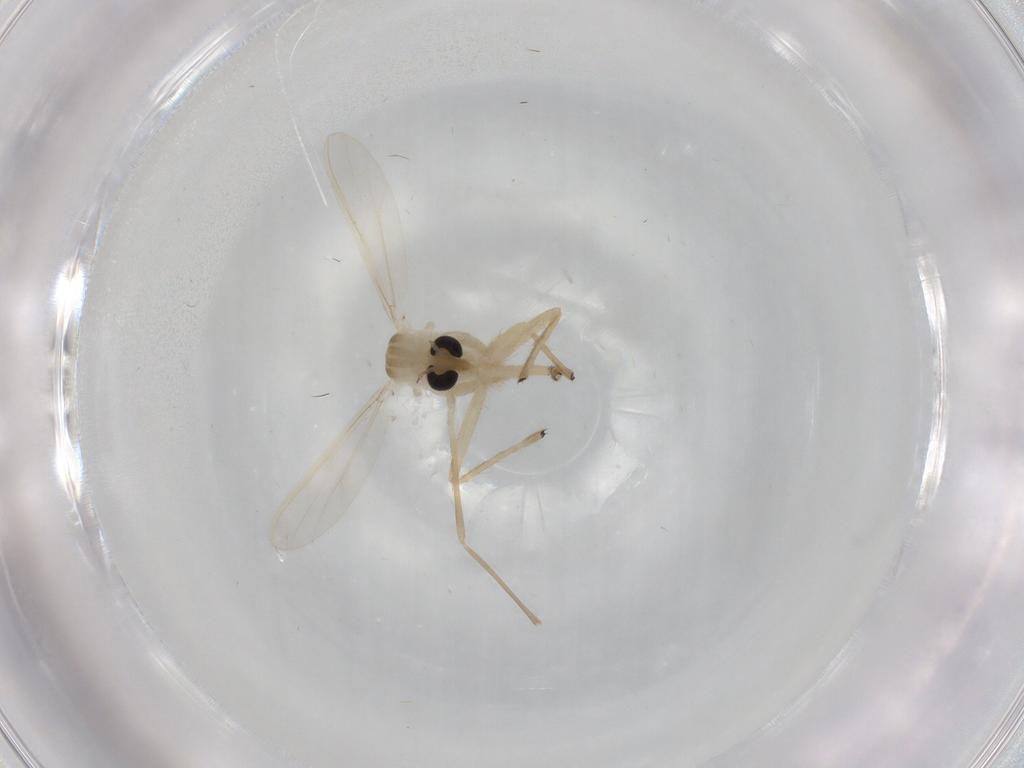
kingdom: Animalia
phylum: Arthropoda
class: Insecta
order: Diptera
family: Chironomidae
